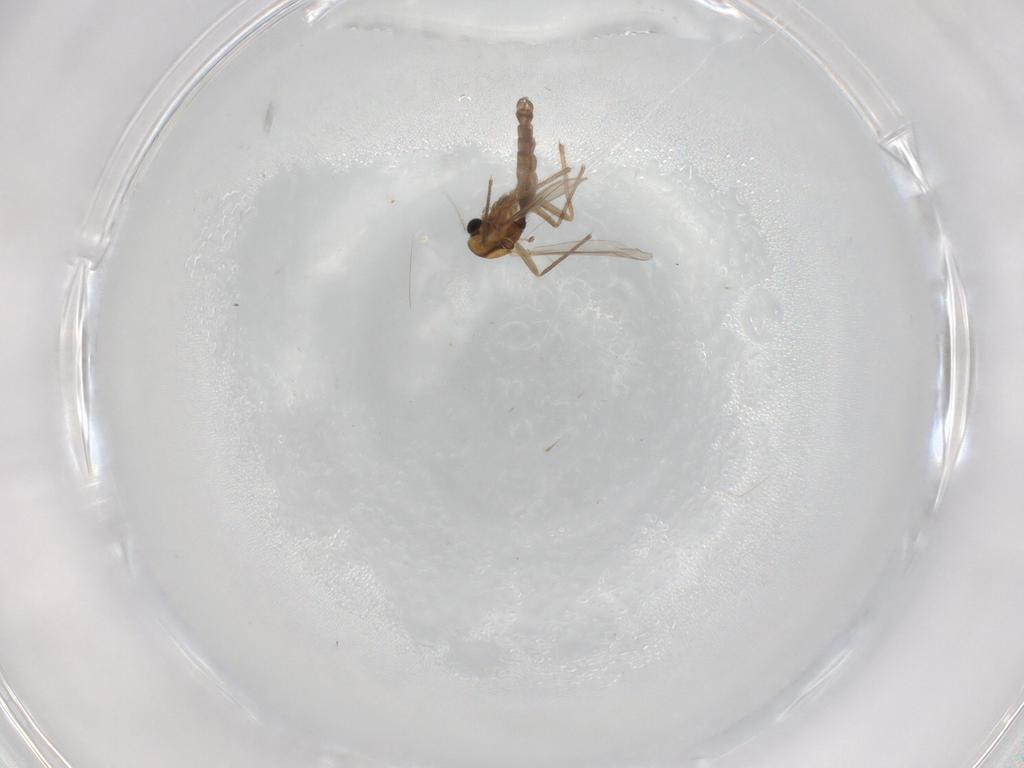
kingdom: Animalia
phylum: Arthropoda
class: Insecta
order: Diptera
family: Chironomidae
